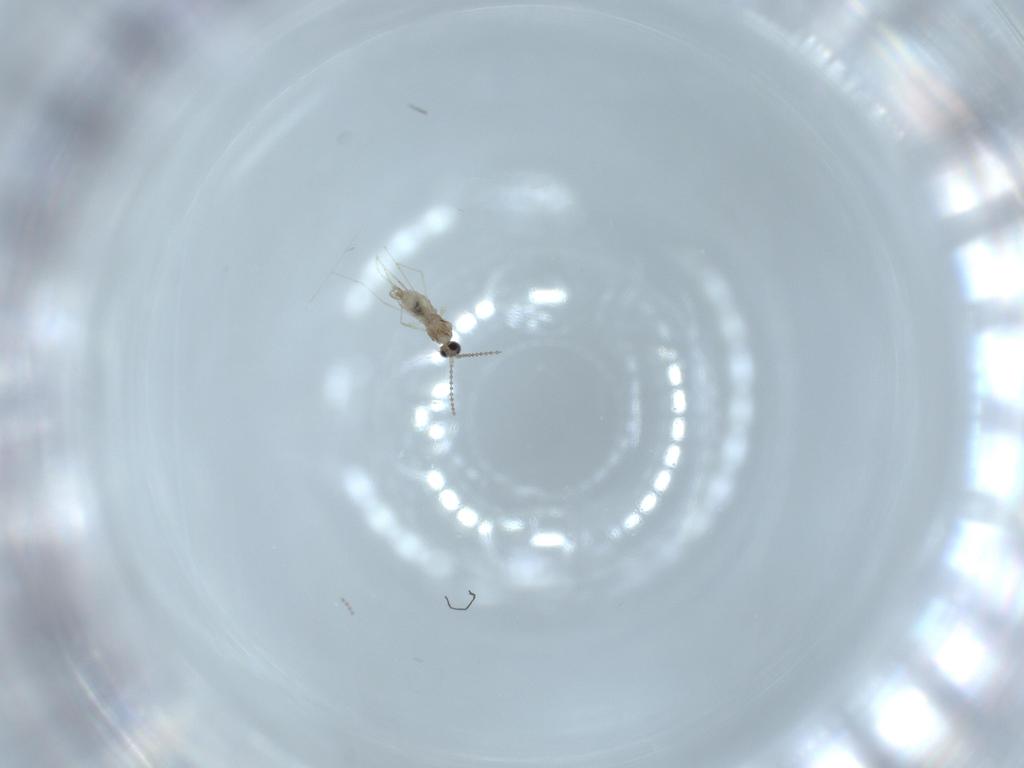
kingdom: Animalia
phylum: Arthropoda
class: Insecta
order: Diptera
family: Cecidomyiidae
